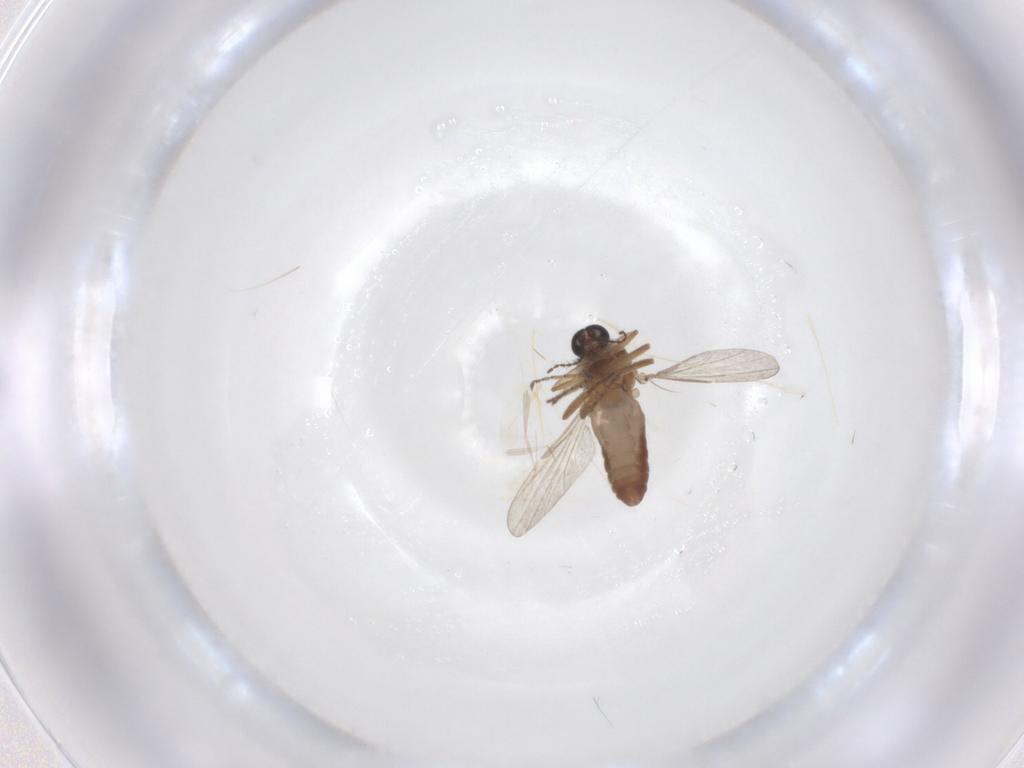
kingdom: Animalia
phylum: Arthropoda
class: Insecta
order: Diptera
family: Ceratopogonidae
